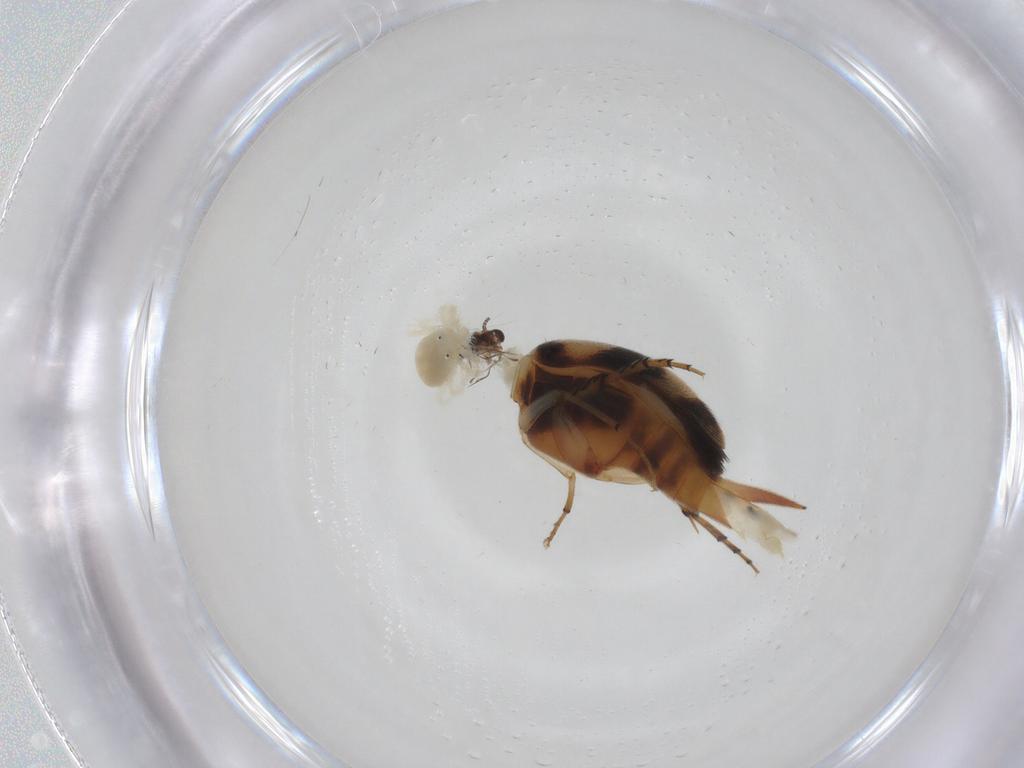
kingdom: Animalia
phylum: Arthropoda
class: Insecta
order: Coleoptera
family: Mordellidae
